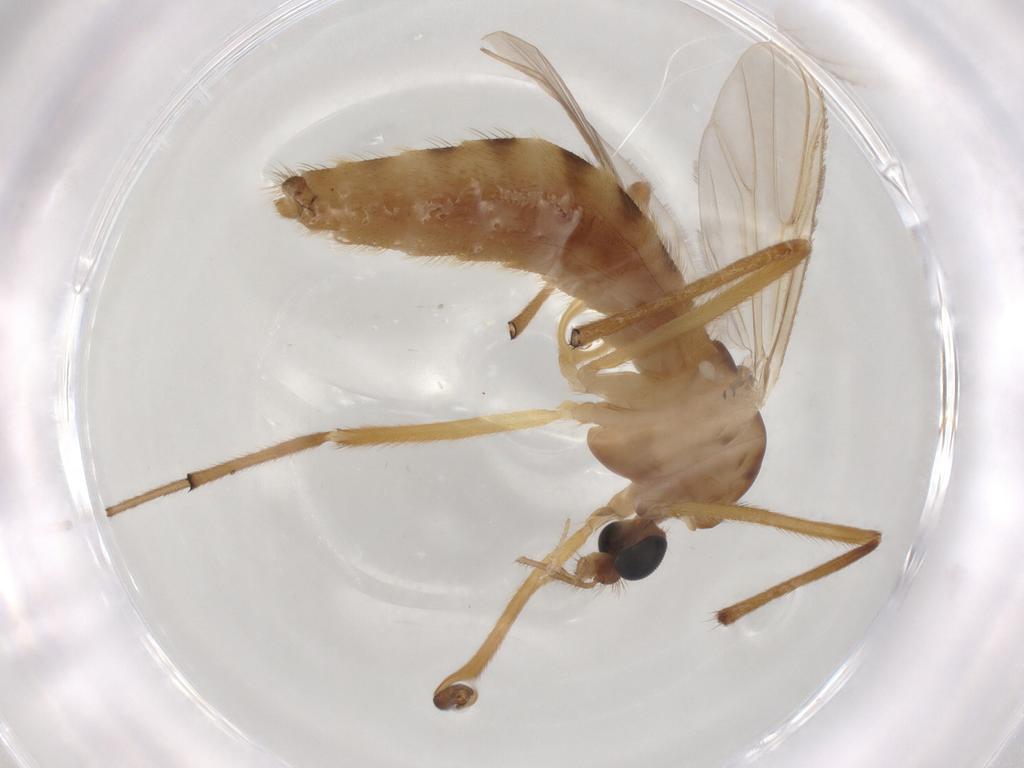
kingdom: Animalia
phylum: Arthropoda
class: Insecta
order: Diptera
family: Chironomidae
